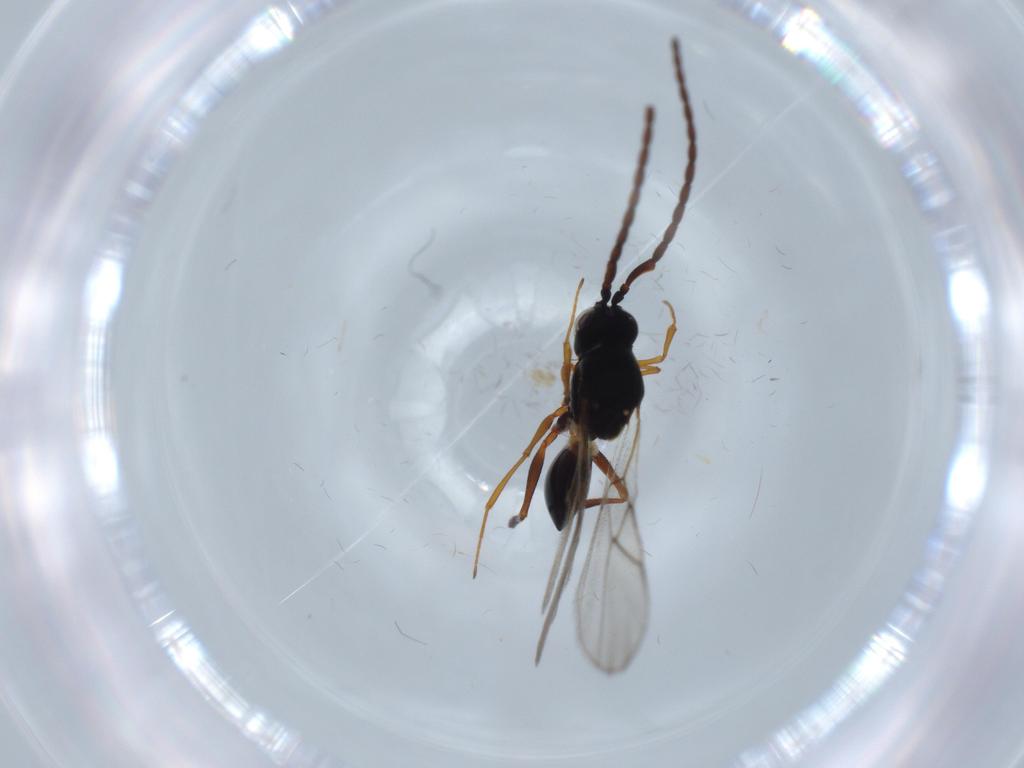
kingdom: Animalia
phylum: Arthropoda
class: Insecta
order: Hymenoptera
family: Figitidae
